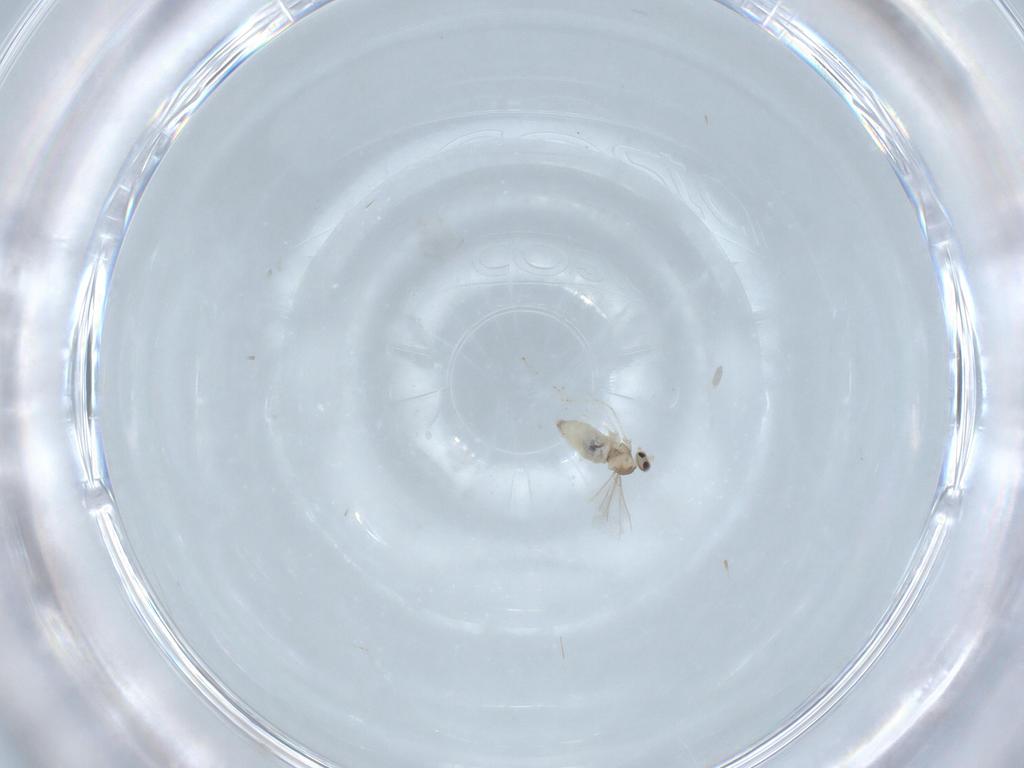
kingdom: Animalia
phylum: Arthropoda
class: Insecta
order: Diptera
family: Cecidomyiidae
